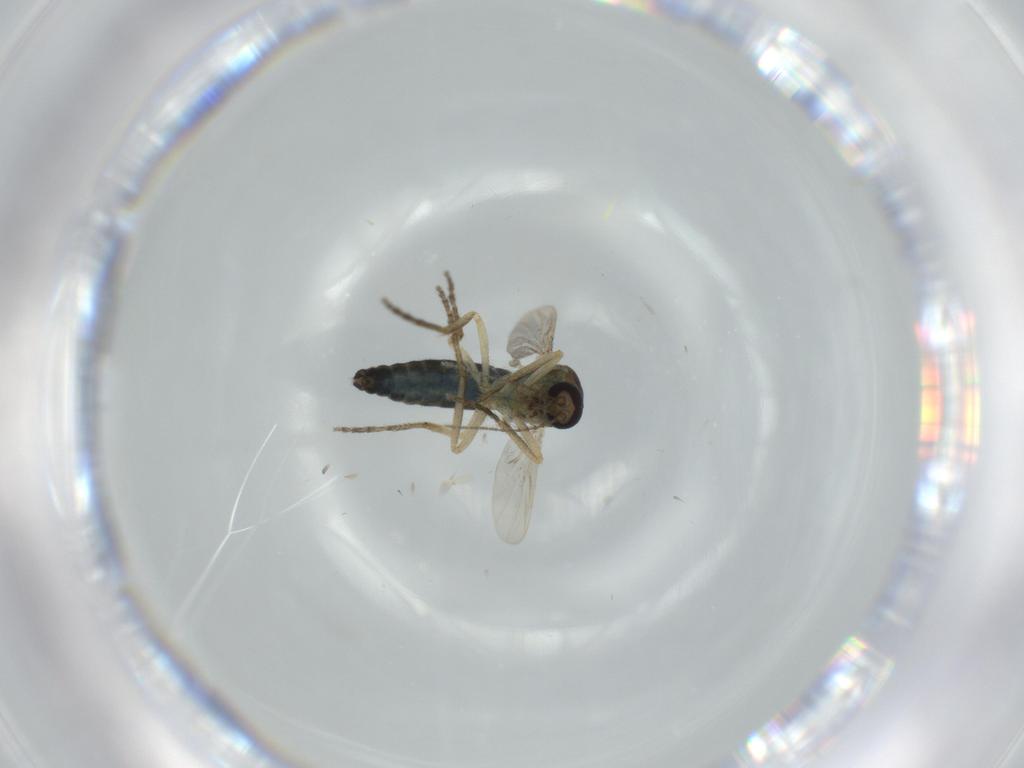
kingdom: Animalia
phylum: Arthropoda
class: Insecta
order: Diptera
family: Ceratopogonidae
